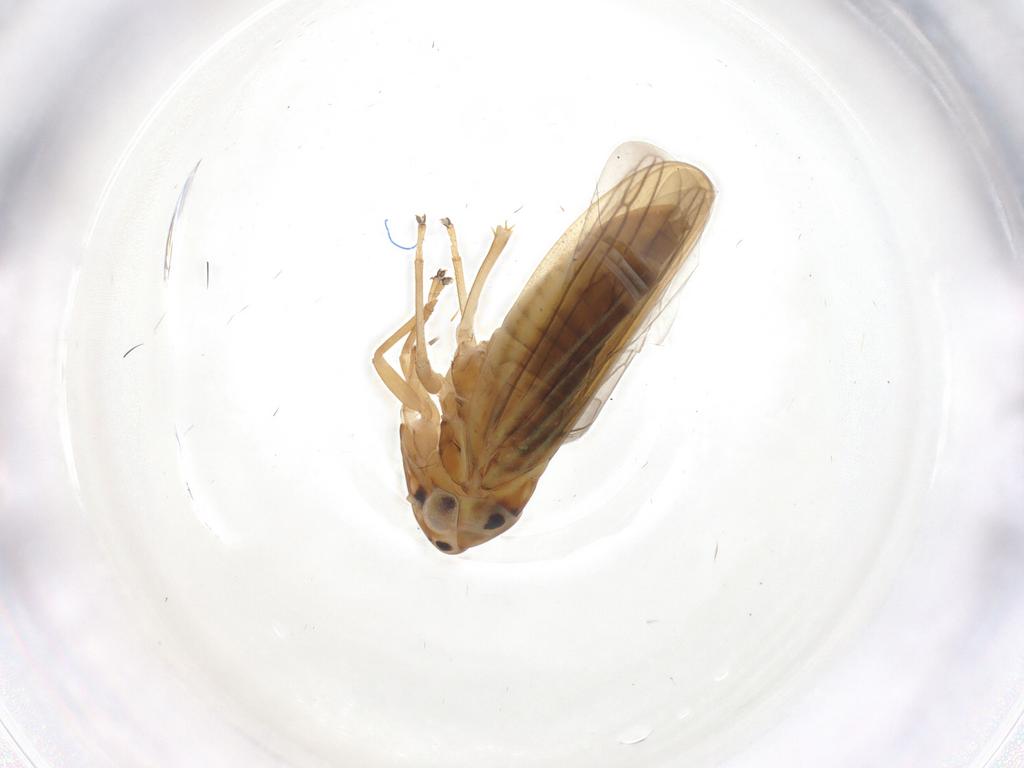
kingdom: Animalia
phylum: Arthropoda
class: Insecta
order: Hemiptera
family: Cicadellidae
